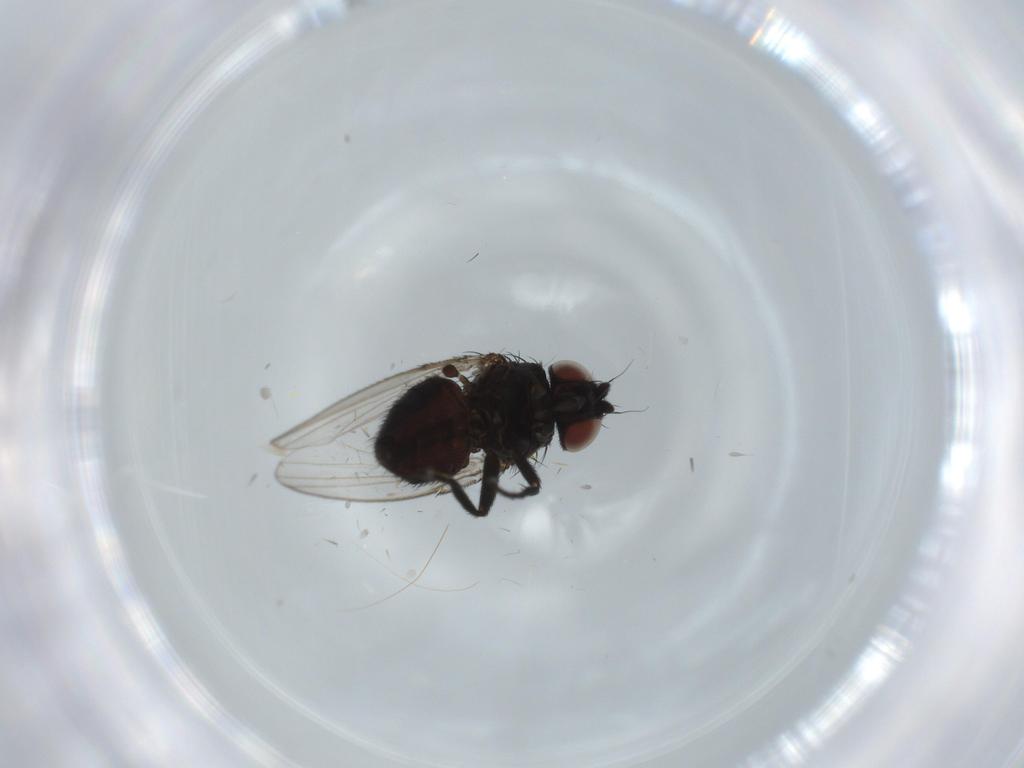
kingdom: Animalia
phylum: Arthropoda
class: Insecta
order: Diptera
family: Milichiidae
